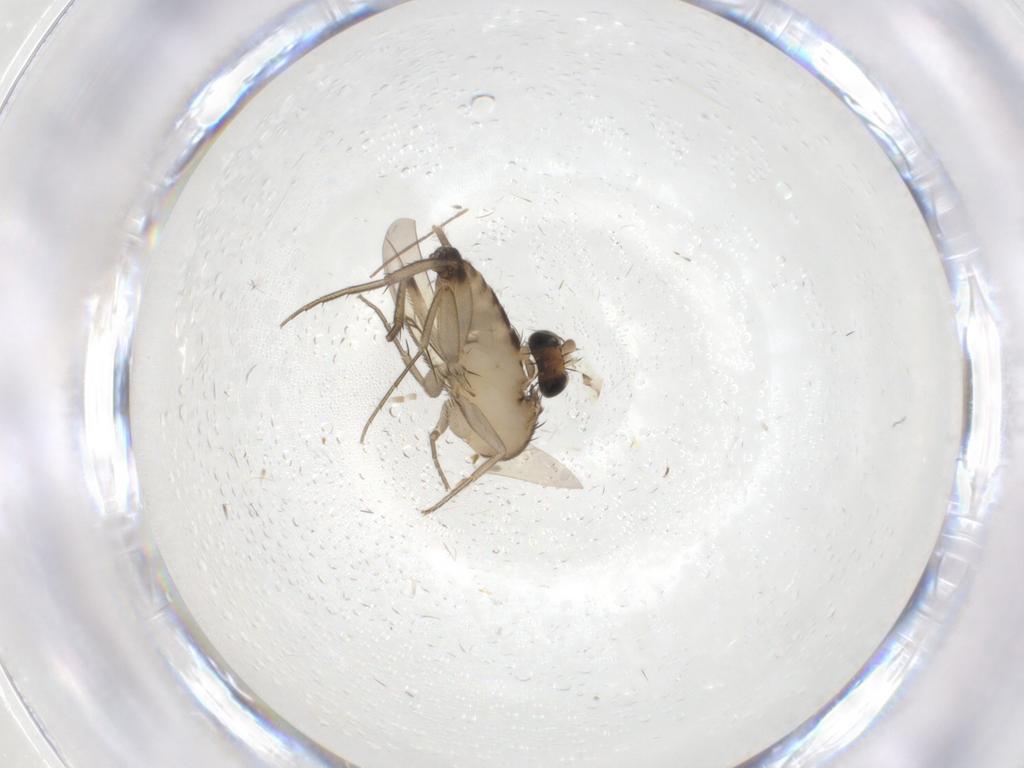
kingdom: Animalia
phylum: Arthropoda
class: Insecta
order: Diptera
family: Phoridae
